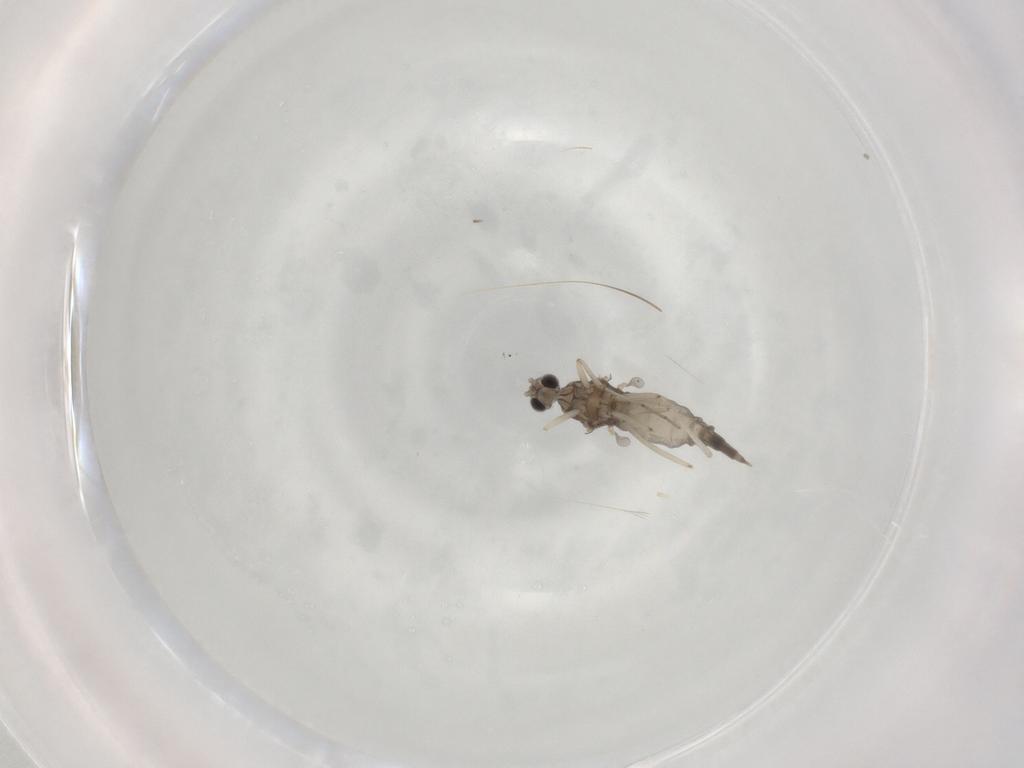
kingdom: Animalia
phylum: Arthropoda
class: Insecta
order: Diptera
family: Cecidomyiidae
